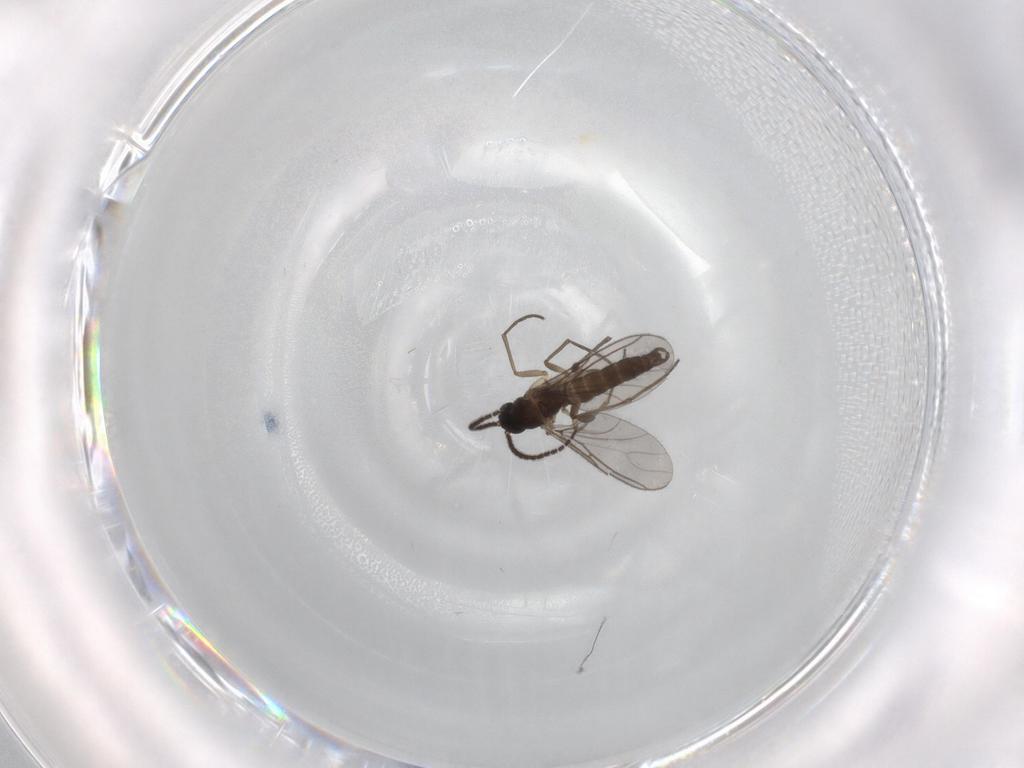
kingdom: Animalia
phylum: Arthropoda
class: Insecta
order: Diptera
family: Sciaridae
